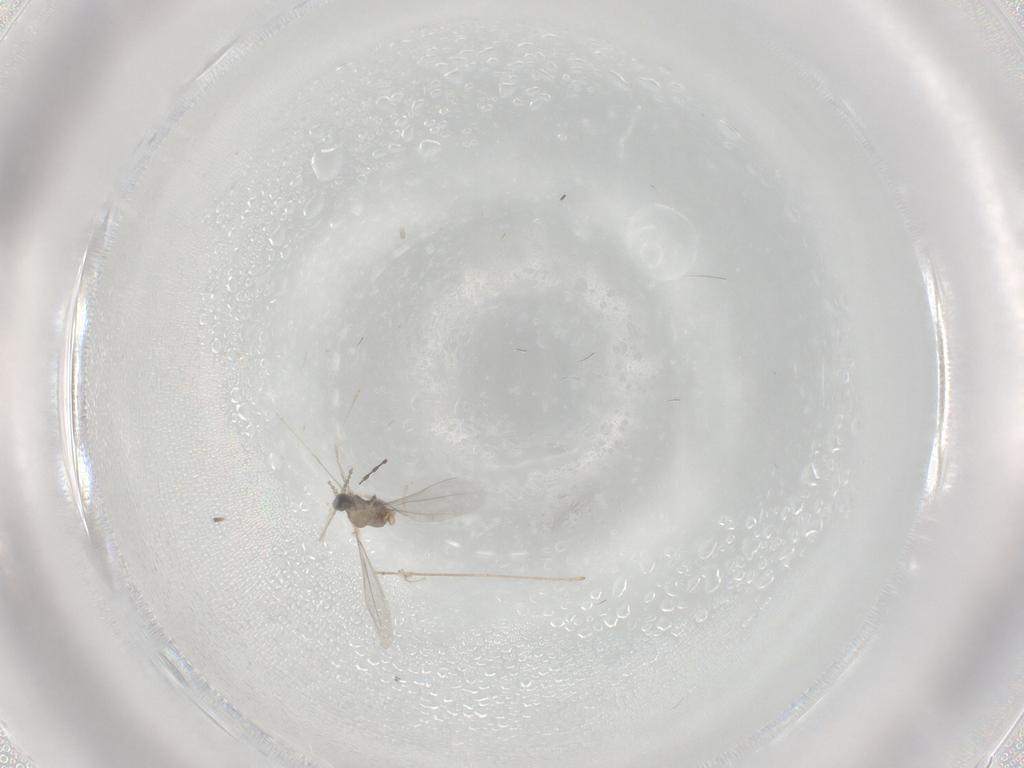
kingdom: Animalia
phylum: Arthropoda
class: Insecta
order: Diptera
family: Cecidomyiidae
